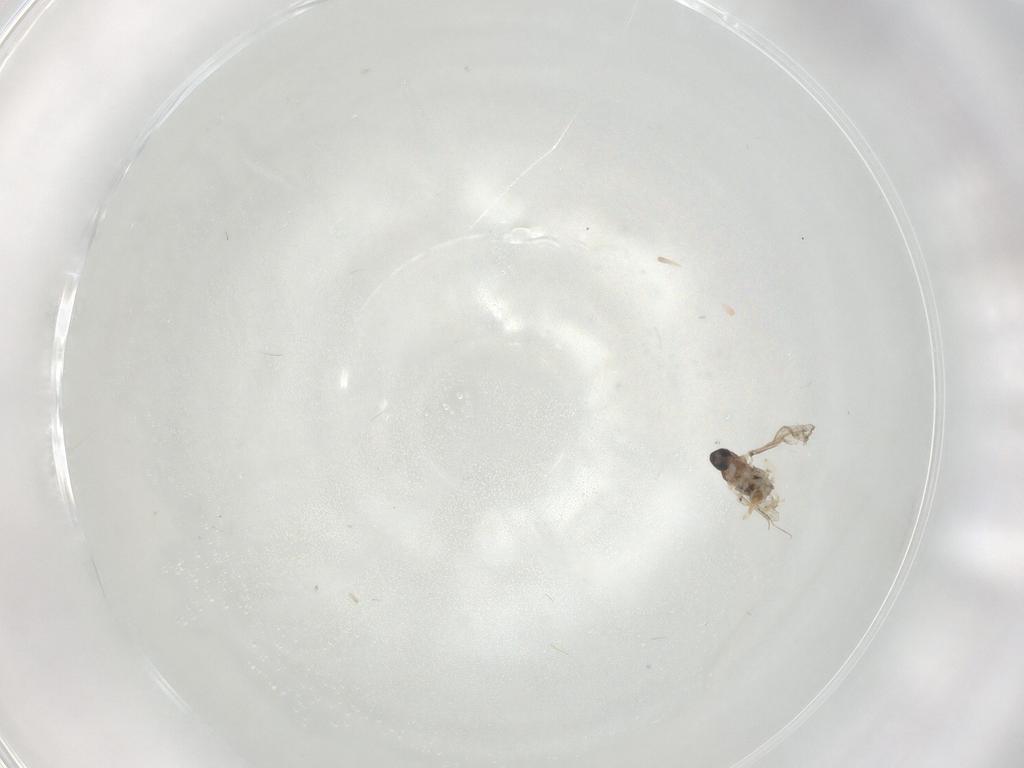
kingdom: Animalia
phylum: Arthropoda
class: Insecta
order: Diptera
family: Cecidomyiidae
